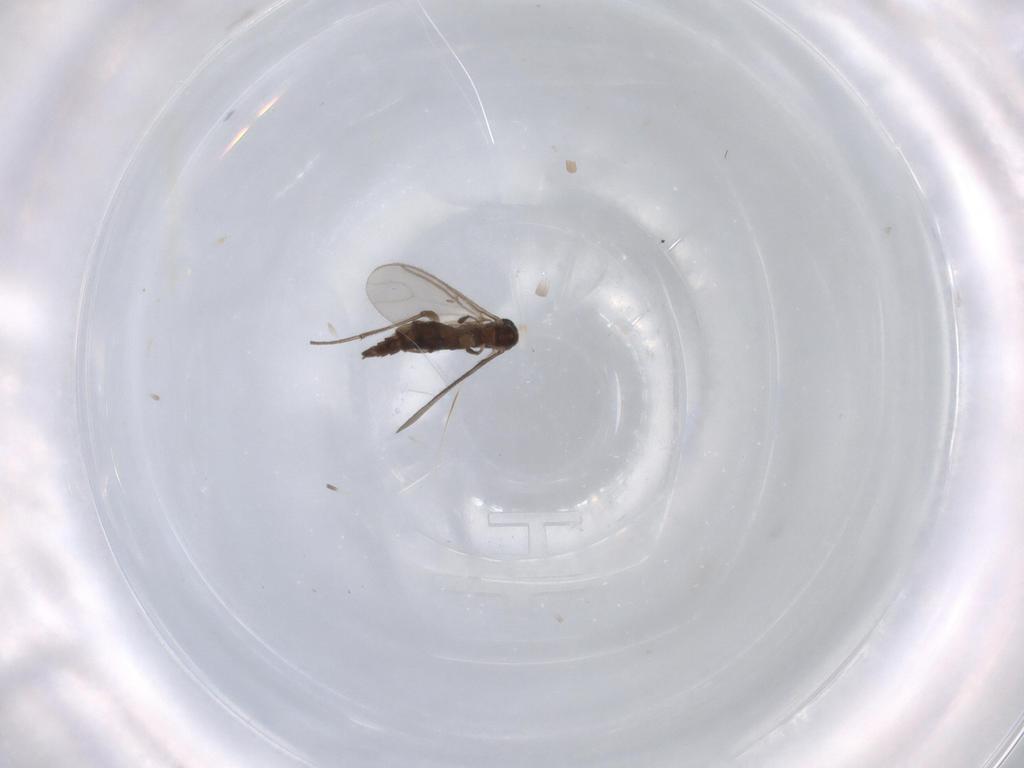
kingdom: Animalia
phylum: Arthropoda
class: Insecta
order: Diptera
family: Sciaridae
